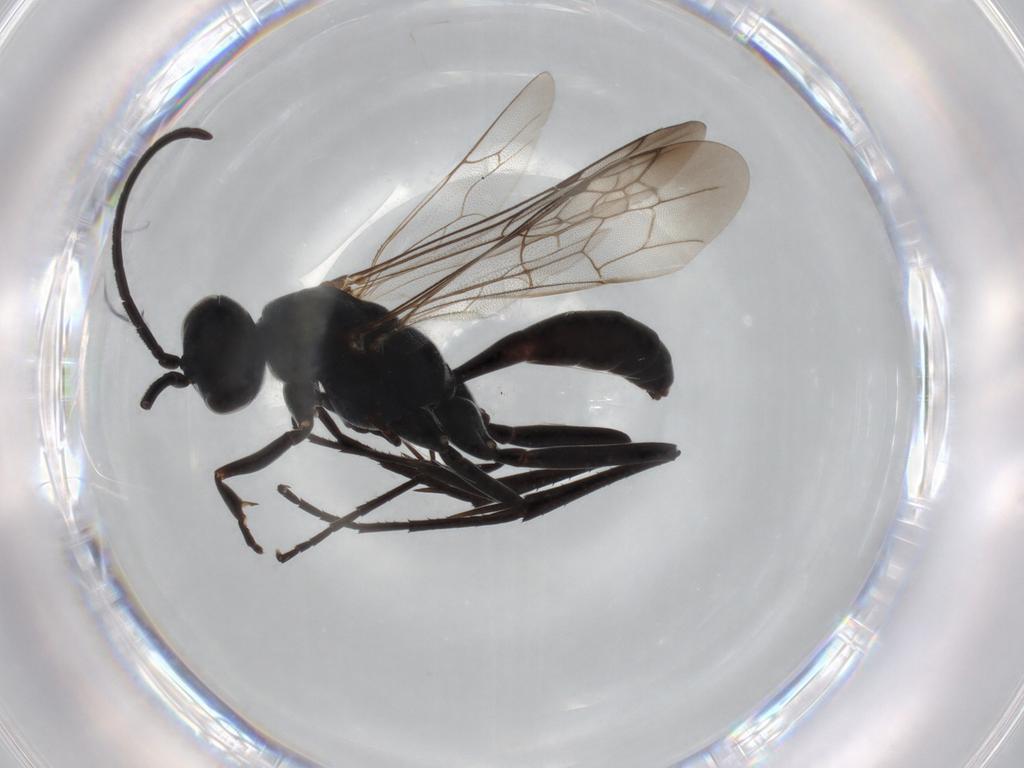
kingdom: Animalia
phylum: Arthropoda
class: Insecta
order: Hymenoptera
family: Pompilidae
